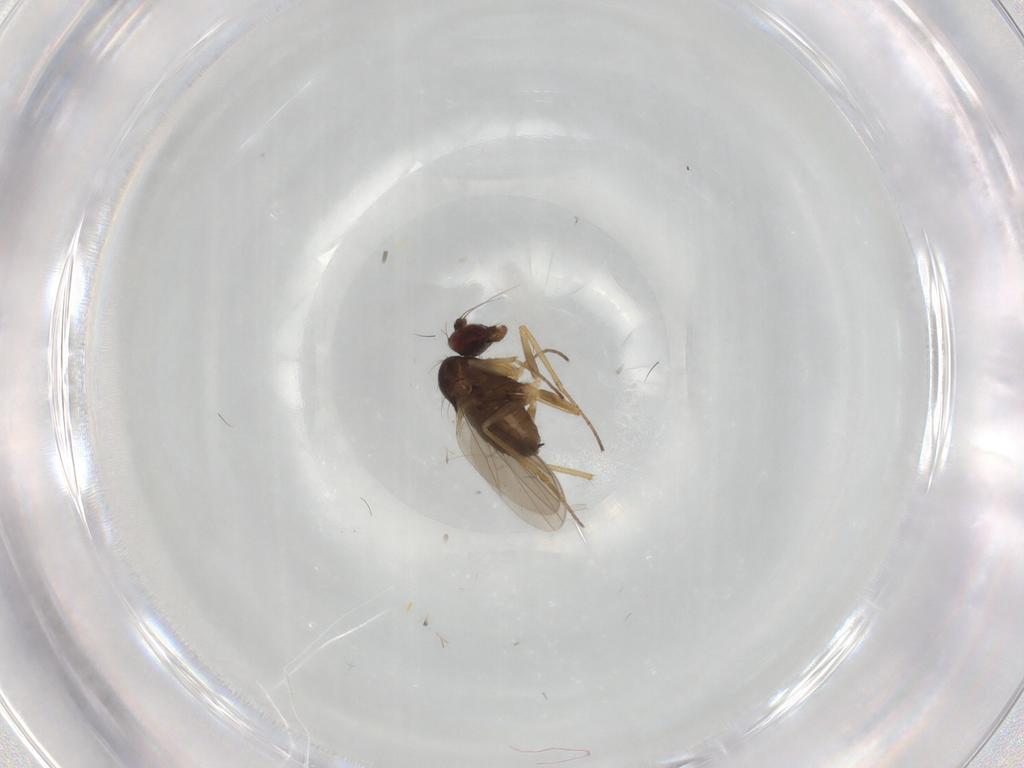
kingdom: Animalia
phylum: Arthropoda
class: Insecta
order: Diptera
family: Dolichopodidae
